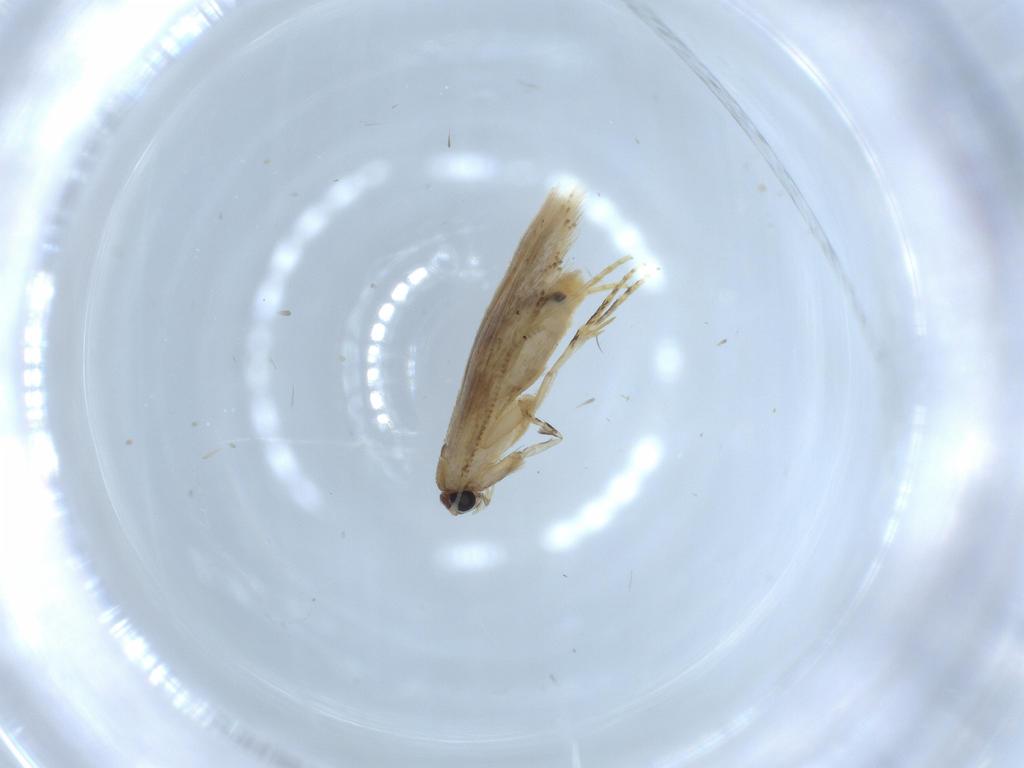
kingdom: Animalia
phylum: Arthropoda
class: Insecta
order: Lepidoptera
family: Tineidae
